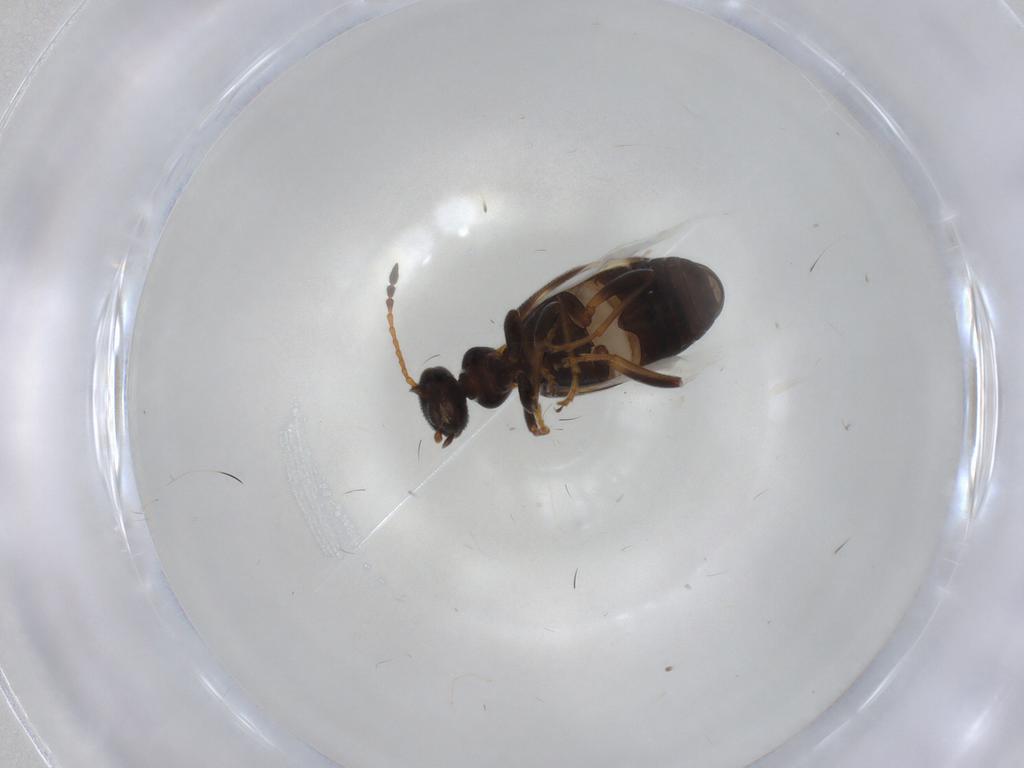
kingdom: Animalia
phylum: Arthropoda
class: Insecta
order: Coleoptera
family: Anthicidae
